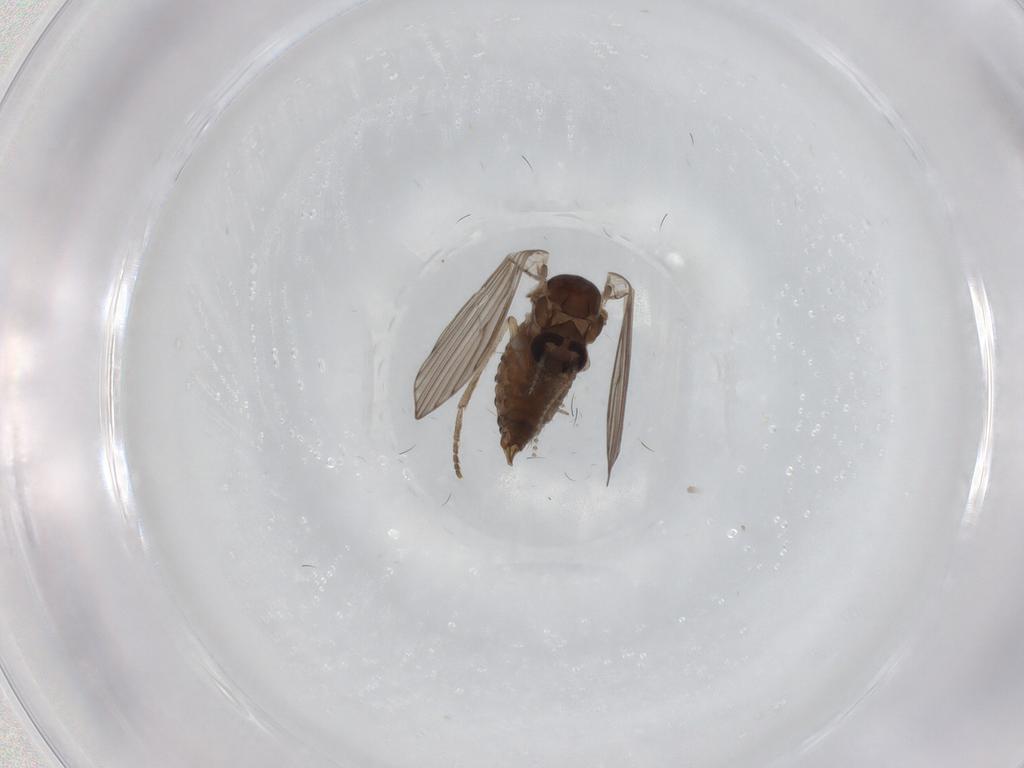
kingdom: Animalia
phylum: Arthropoda
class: Insecta
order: Diptera
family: Psychodidae
